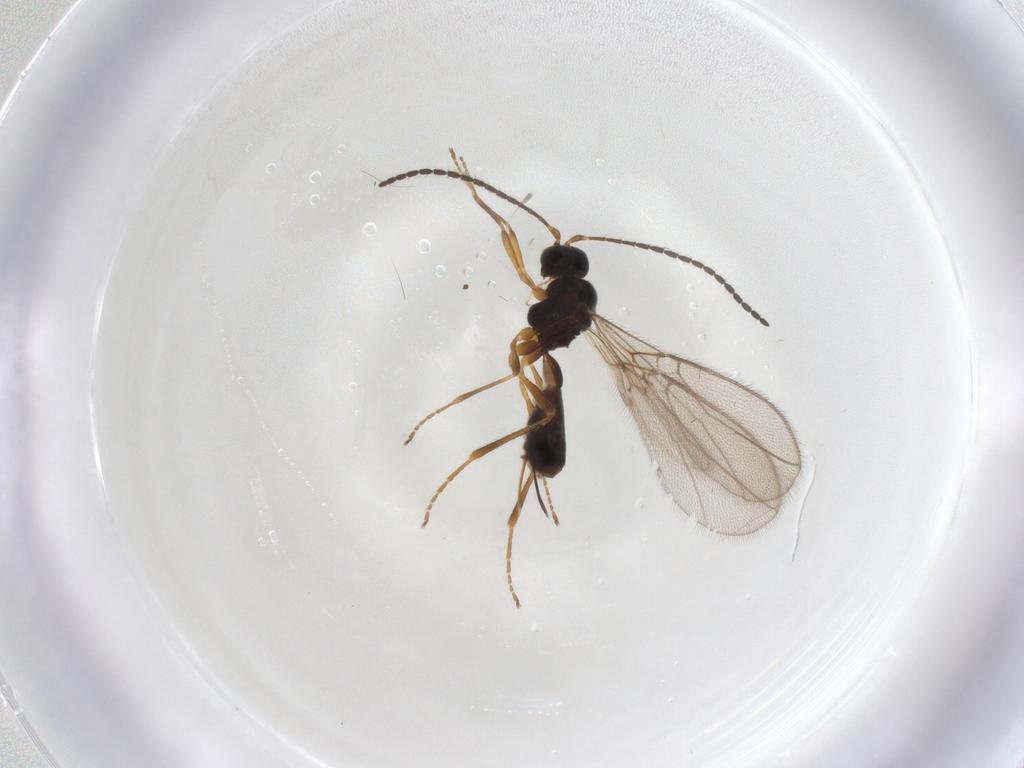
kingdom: Animalia
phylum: Arthropoda
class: Insecta
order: Hymenoptera
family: Braconidae
